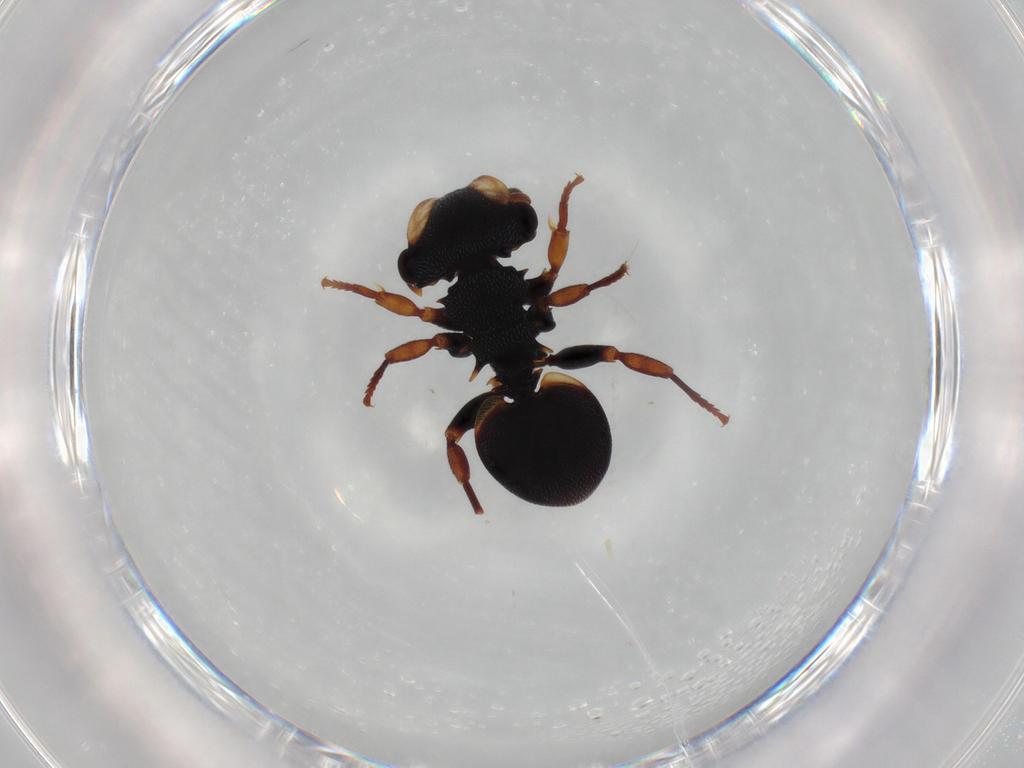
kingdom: Animalia
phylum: Arthropoda
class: Insecta
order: Hymenoptera
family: Formicidae
